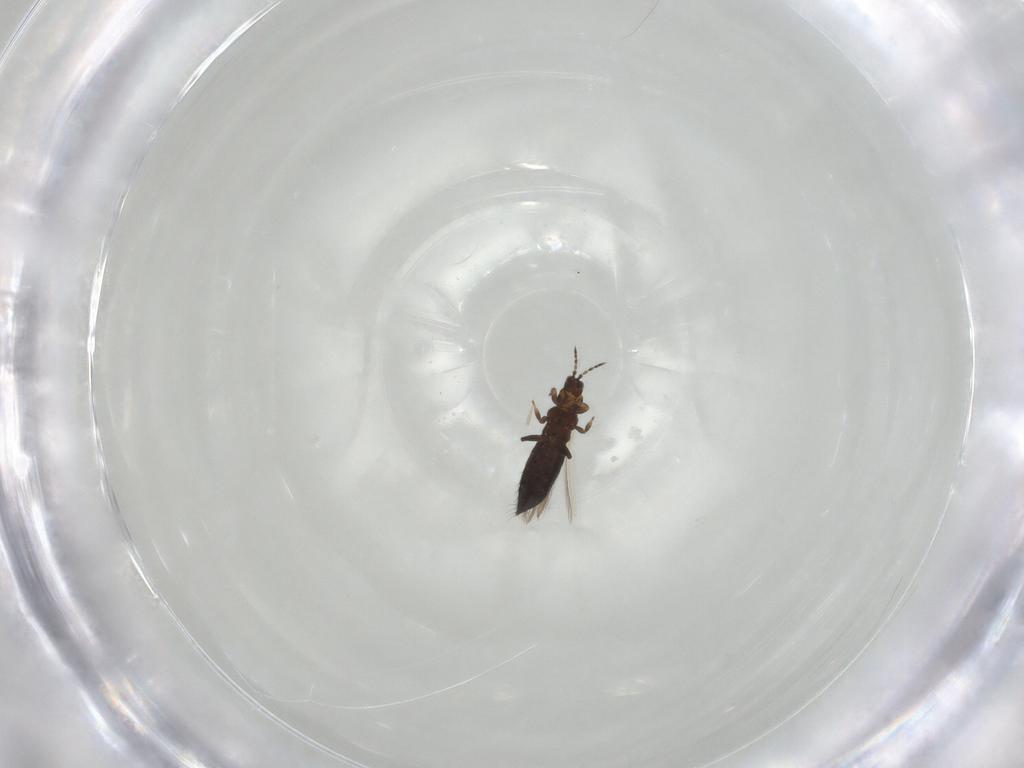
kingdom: Animalia
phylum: Arthropoda
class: Insecta
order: Thysanoptera
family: Thripidae
